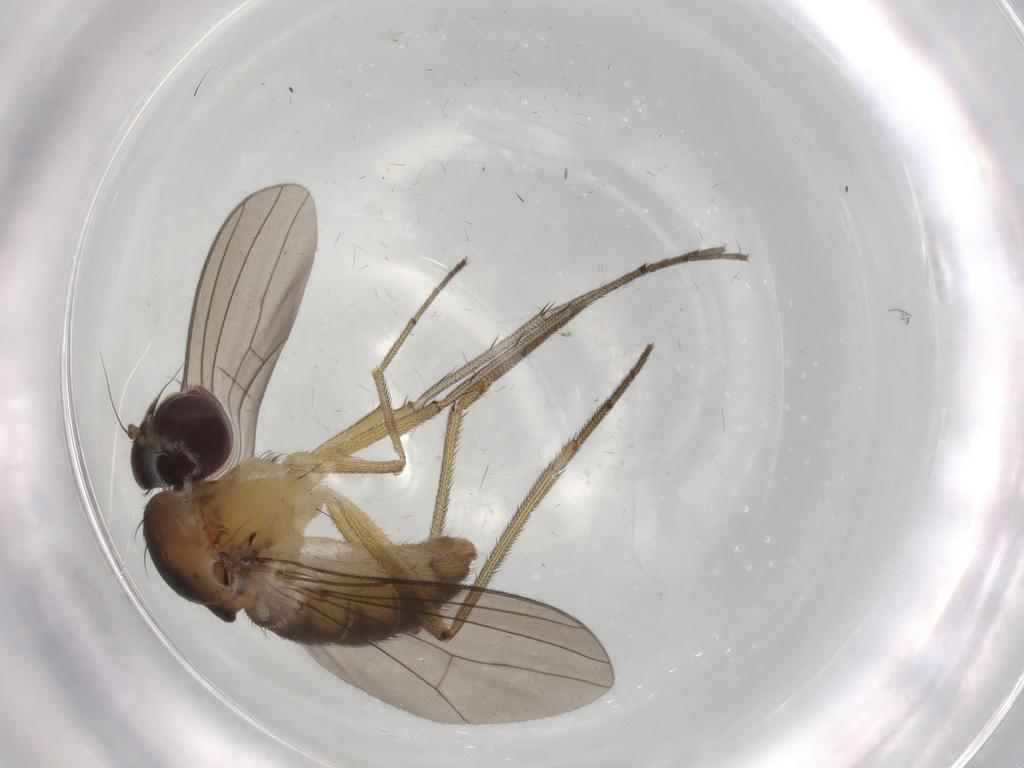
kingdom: Animalia
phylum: Arthropoda
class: Insecta
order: Diptera
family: Dolichopodidae
